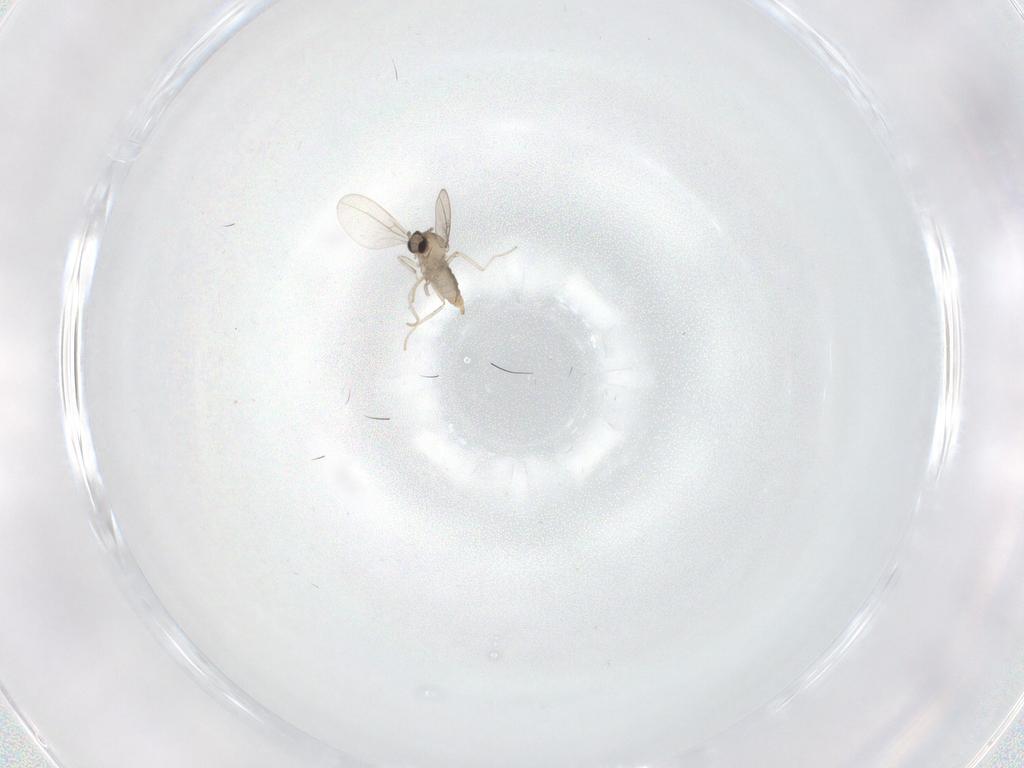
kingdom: Animalia
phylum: Arthropoda
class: Insecta
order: Diptera
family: Cecidomyiidae
